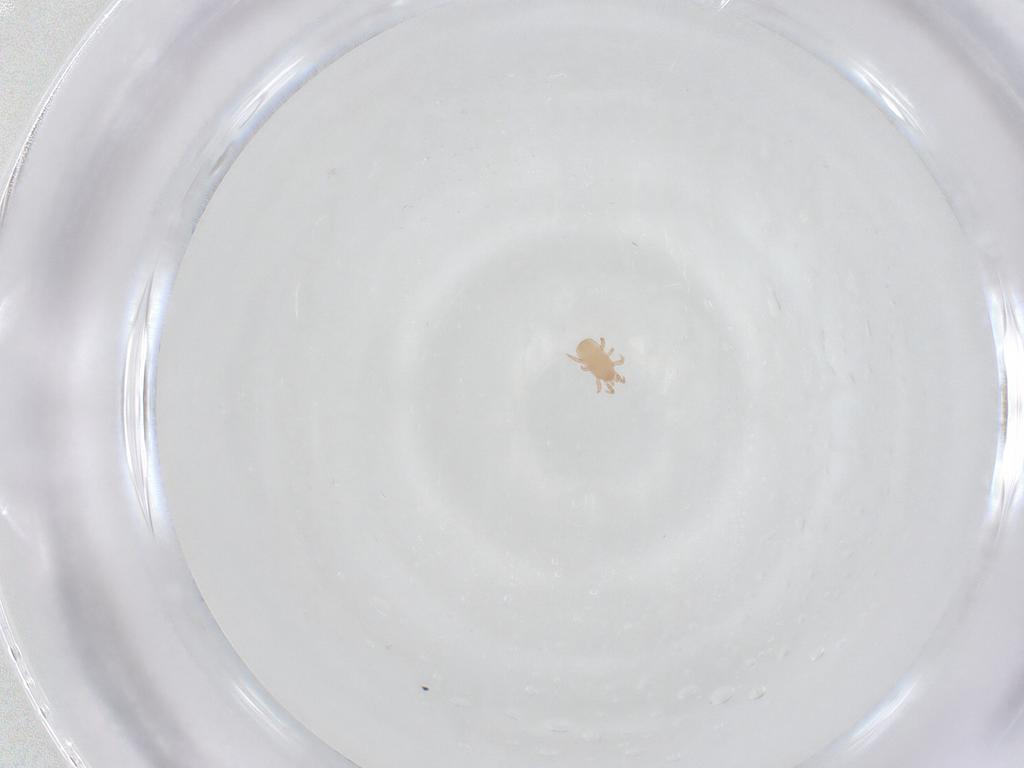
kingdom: Animalia
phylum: Arthropoda
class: Arachnida
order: Mesostigmata
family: Digamasellidae
